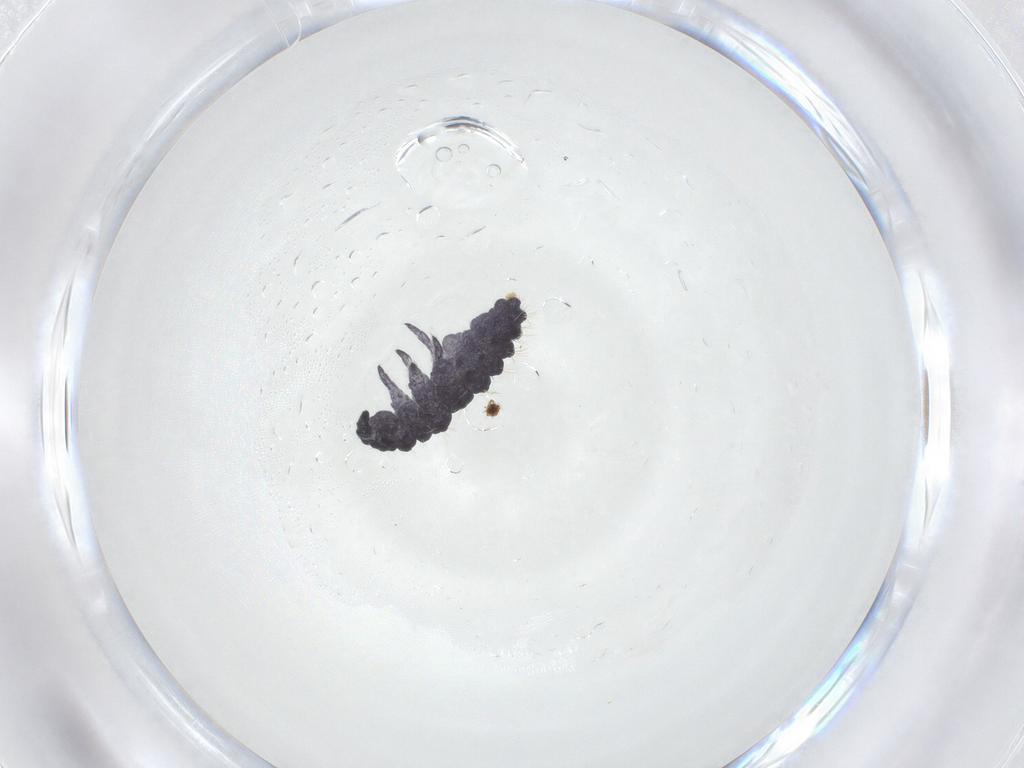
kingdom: Animalia
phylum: Arthropoda
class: Collembola
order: Poduromorpha
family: Neanuridae
